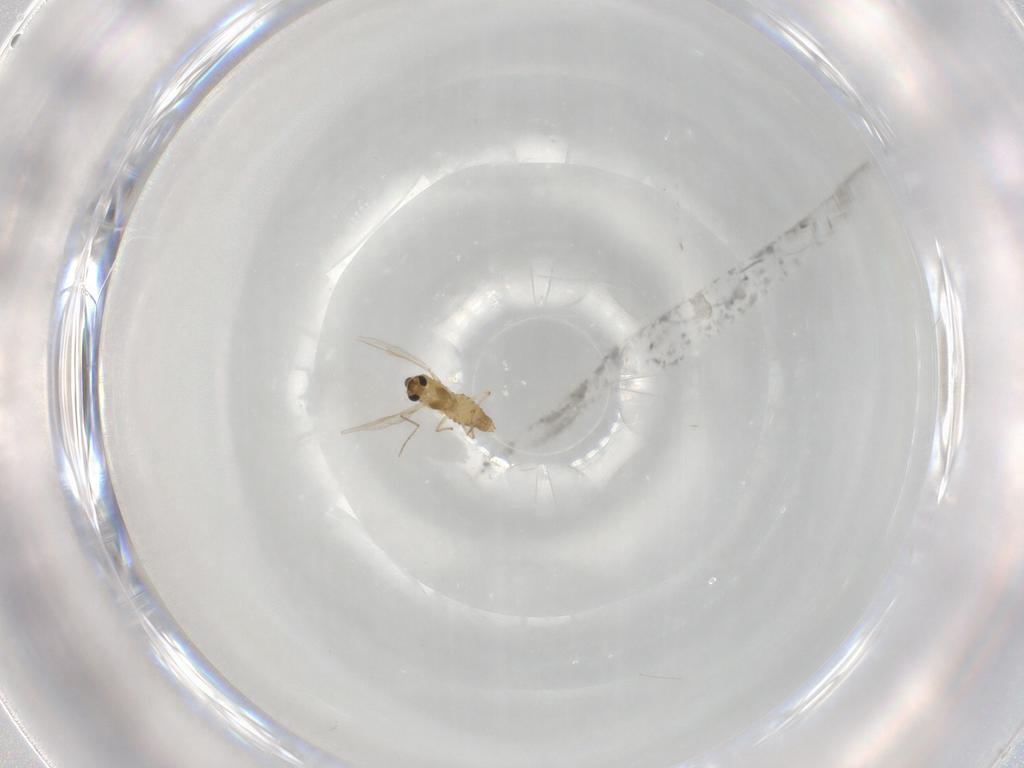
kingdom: Animalia
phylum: Arthropoda
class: Insecta
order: Diptera
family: Chironomidae
